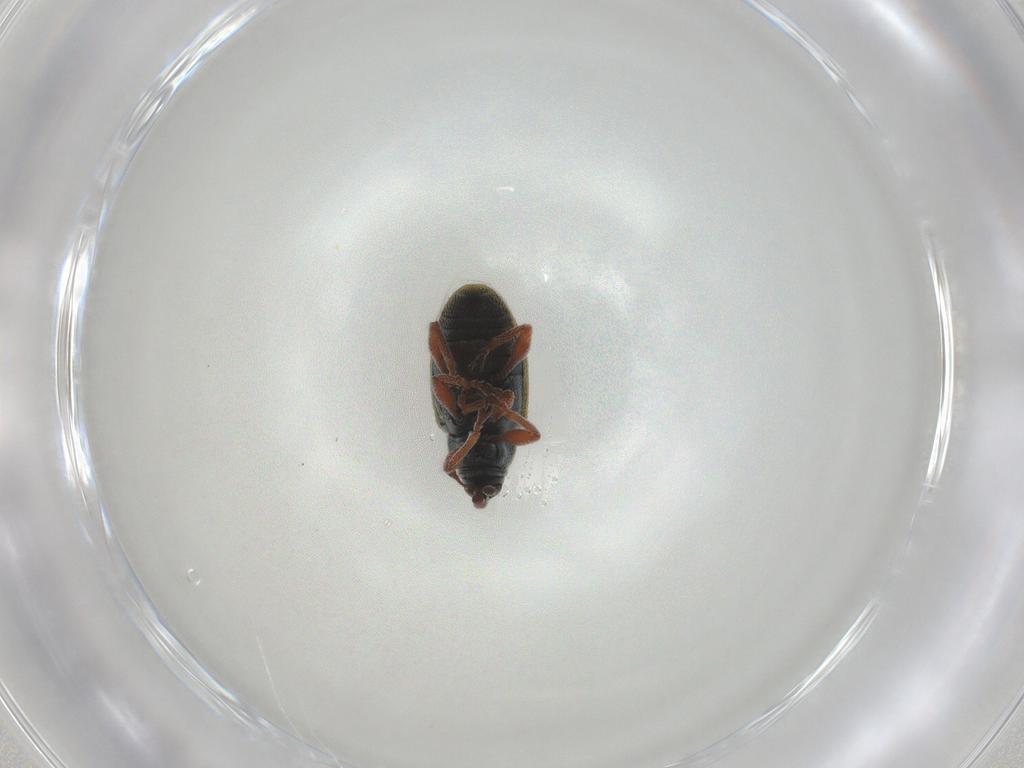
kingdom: Animalia
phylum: Arthropoda
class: Insecta
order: Coleoptera
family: Curculionidae
